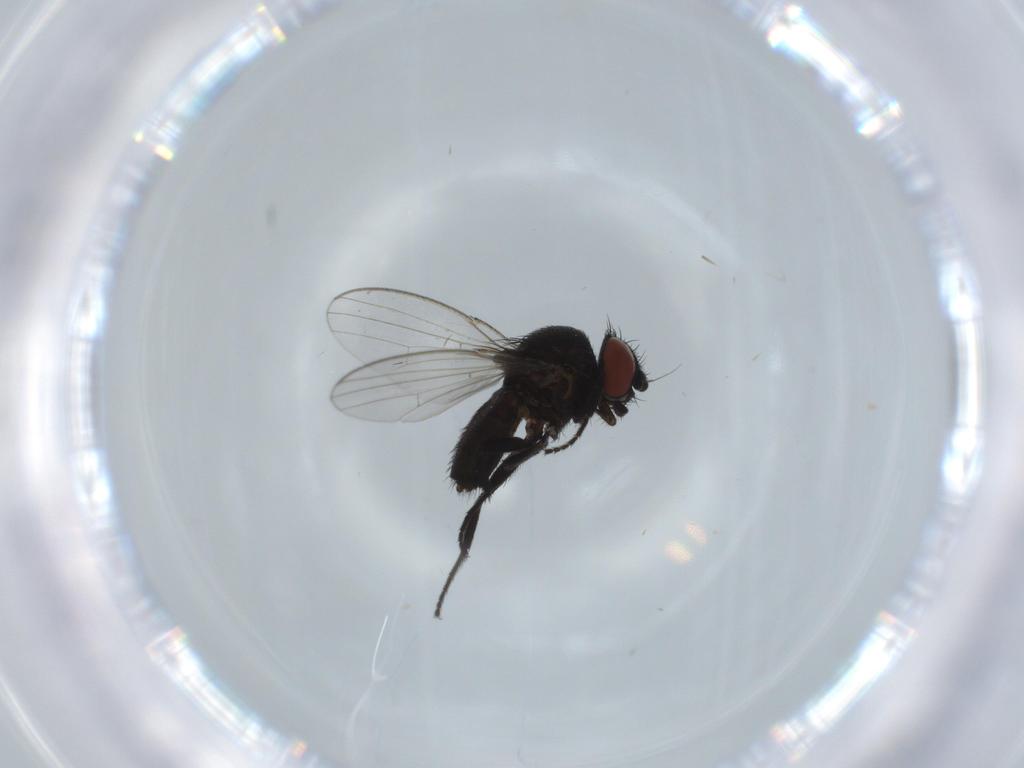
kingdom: Animalia
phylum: Arthropoda
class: Insecta
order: Diptera
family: Milichiidae
